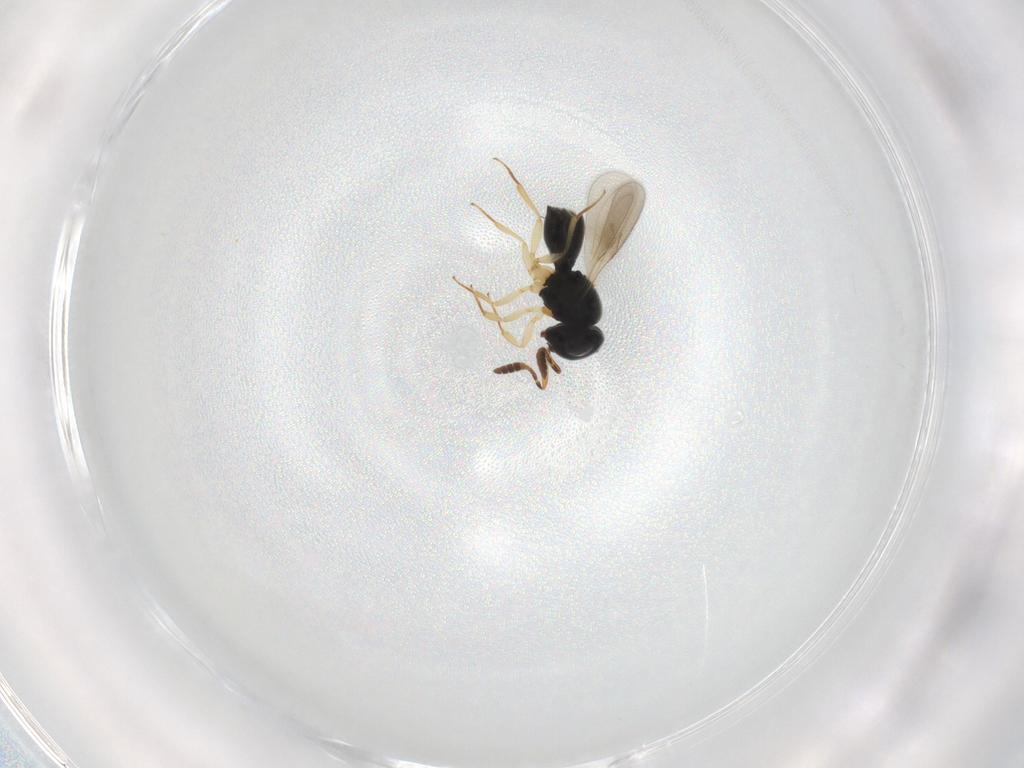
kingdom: Animalia
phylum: Arthropoda
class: Insecta
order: Hymenoptera
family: Scelionidae
